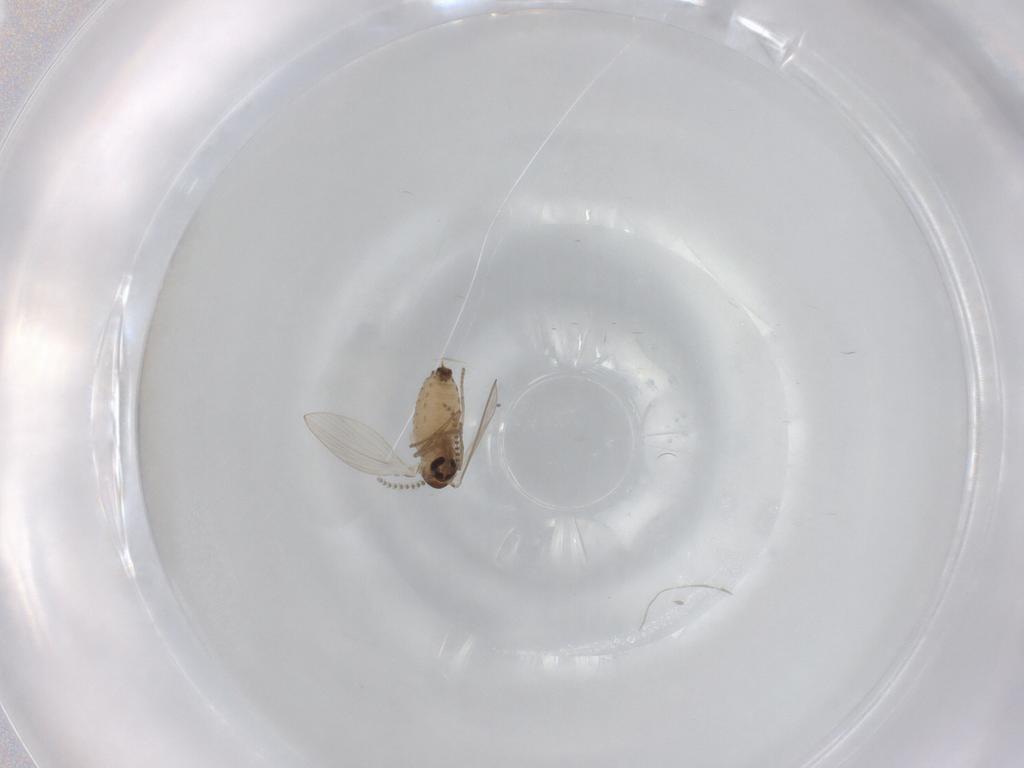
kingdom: Animalia
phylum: Arthropoda
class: Insecta
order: Diptera
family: Psychodidae
